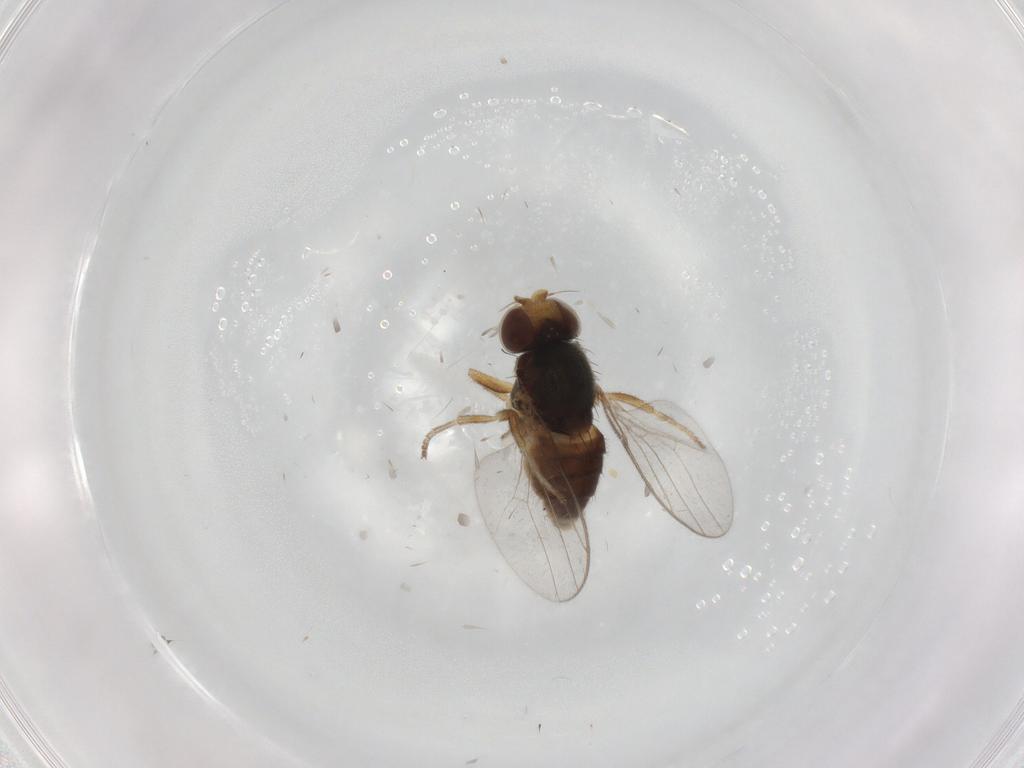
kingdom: Animalia
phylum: Arthropoda
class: Insecta
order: Diptera
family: Chloropidae
